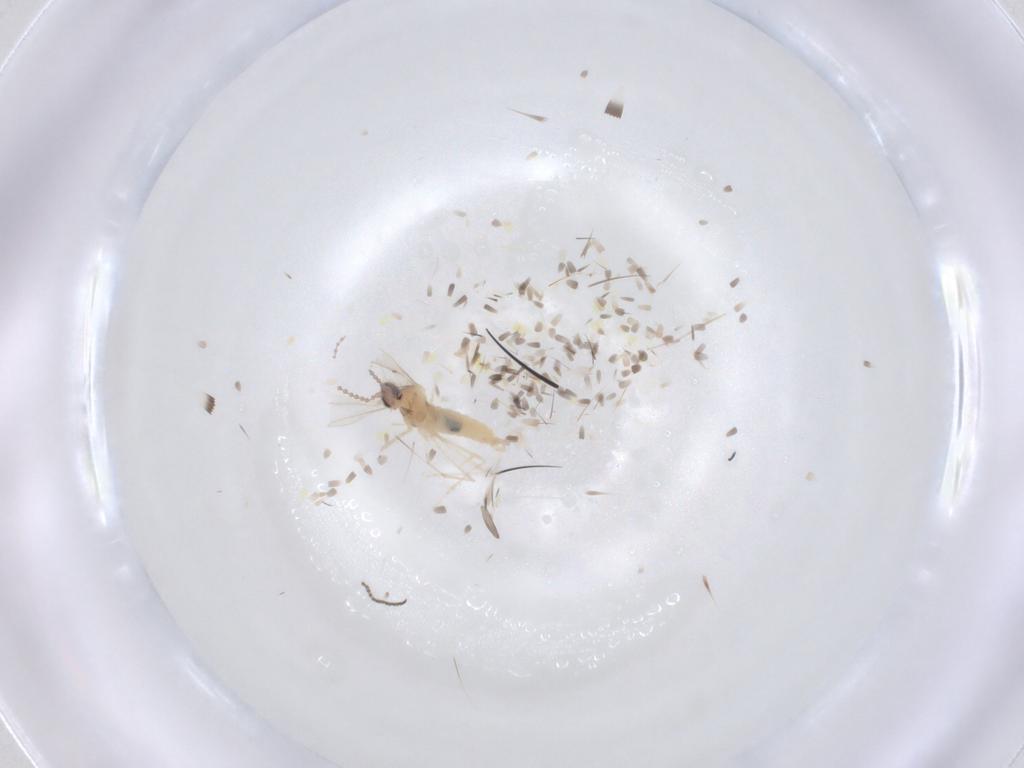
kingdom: Animalia
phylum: Arthropoda
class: Insecta
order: Diptera
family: Cecidomyiidae
